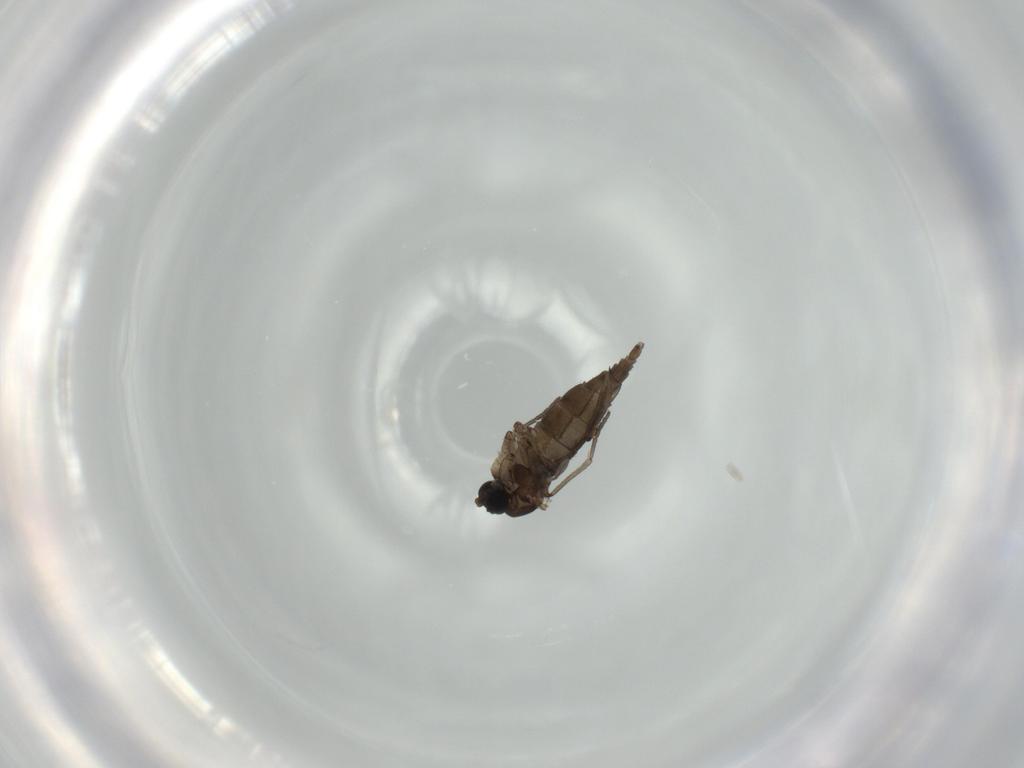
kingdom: Animalia
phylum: Arthropoda
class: Insecta
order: Diptera
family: Sciaridae
